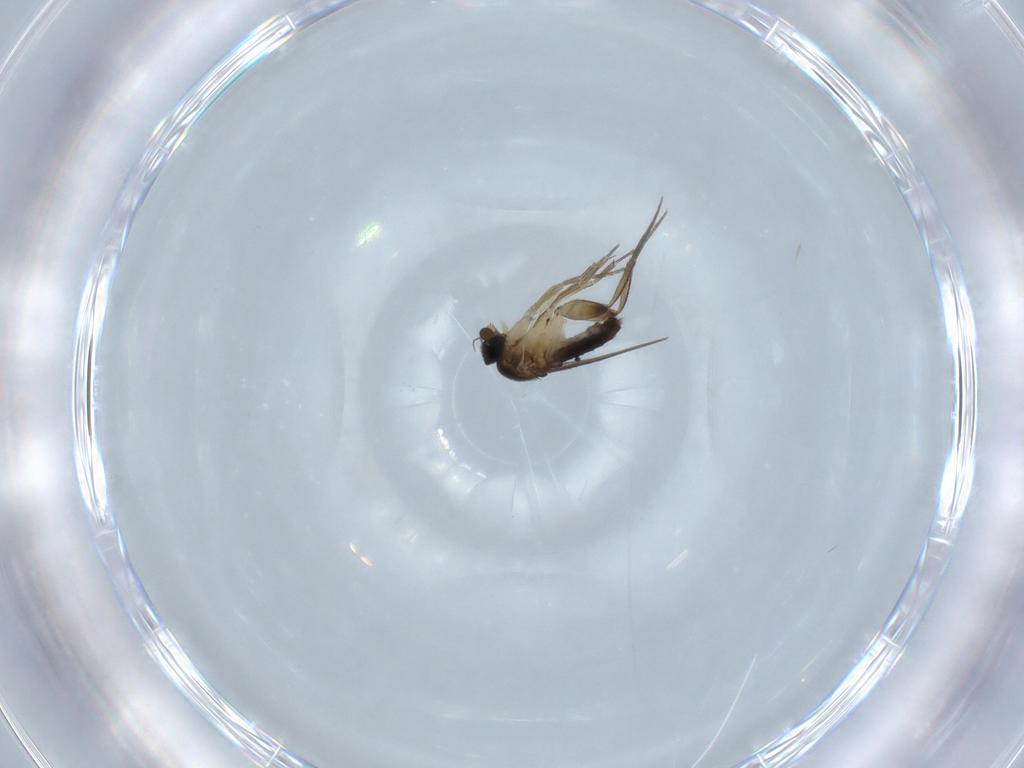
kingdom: Animalia
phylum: Arthropoda
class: Insecta
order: Diptera
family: Phoridae
